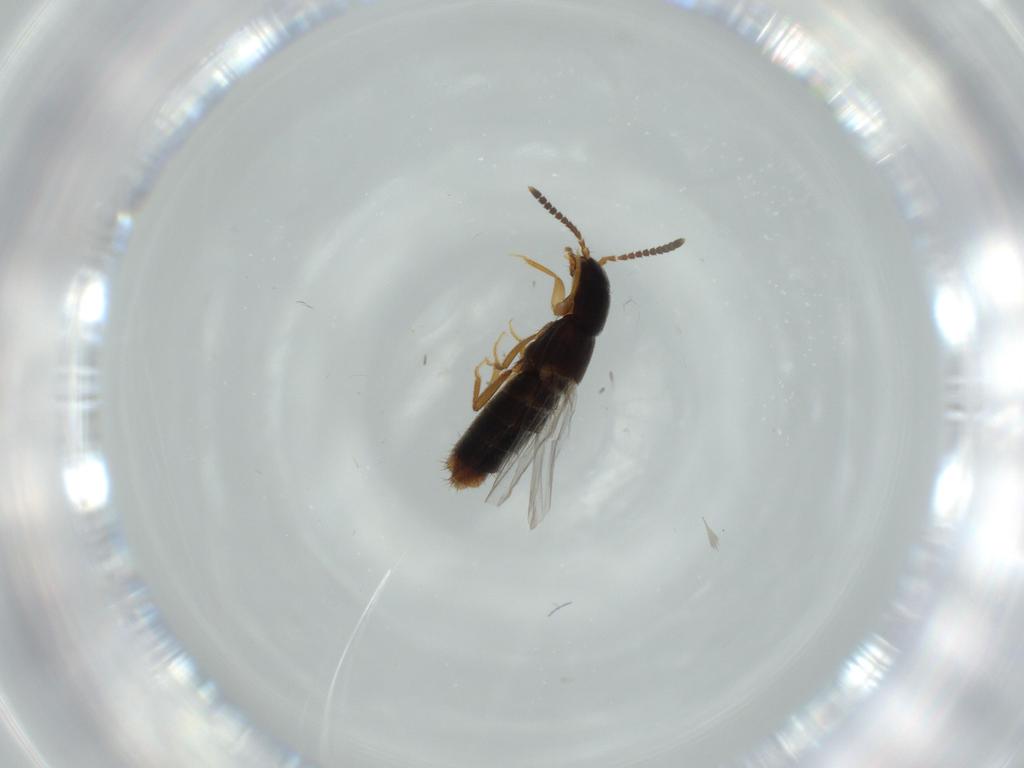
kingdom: Animalia
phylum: Arthropoda
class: Insecta
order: Coleoptera
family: Staphylinidae
